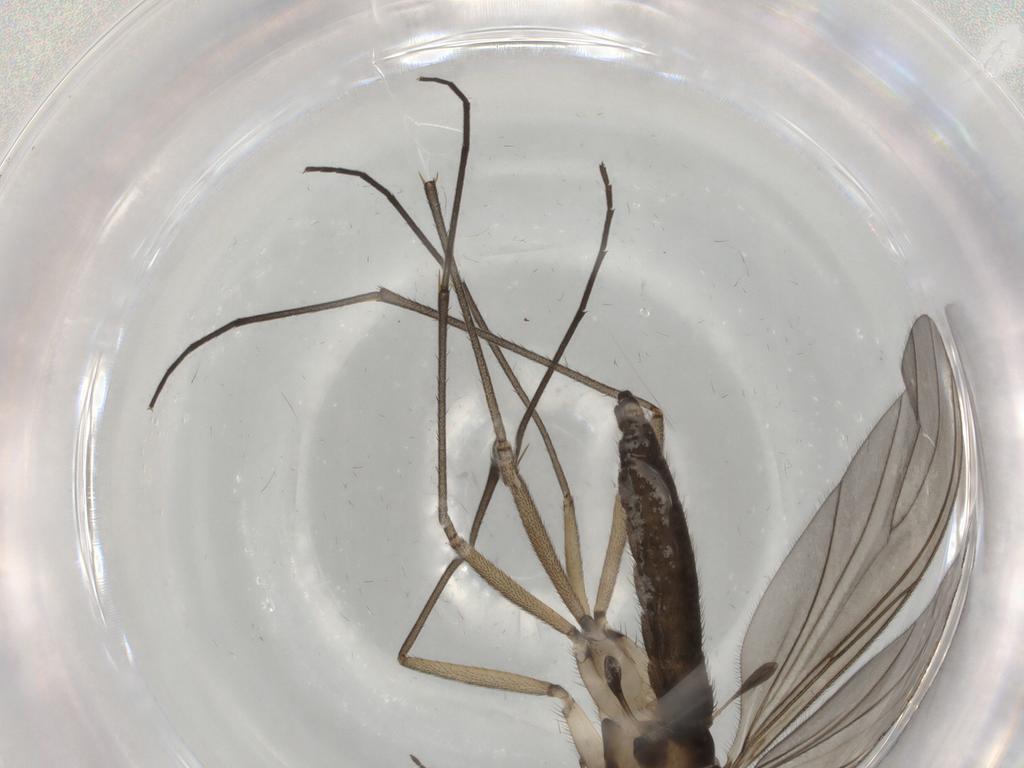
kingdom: Animalia
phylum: Arthropoda
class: Insecta
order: Diptera
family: Mycetophilidae
